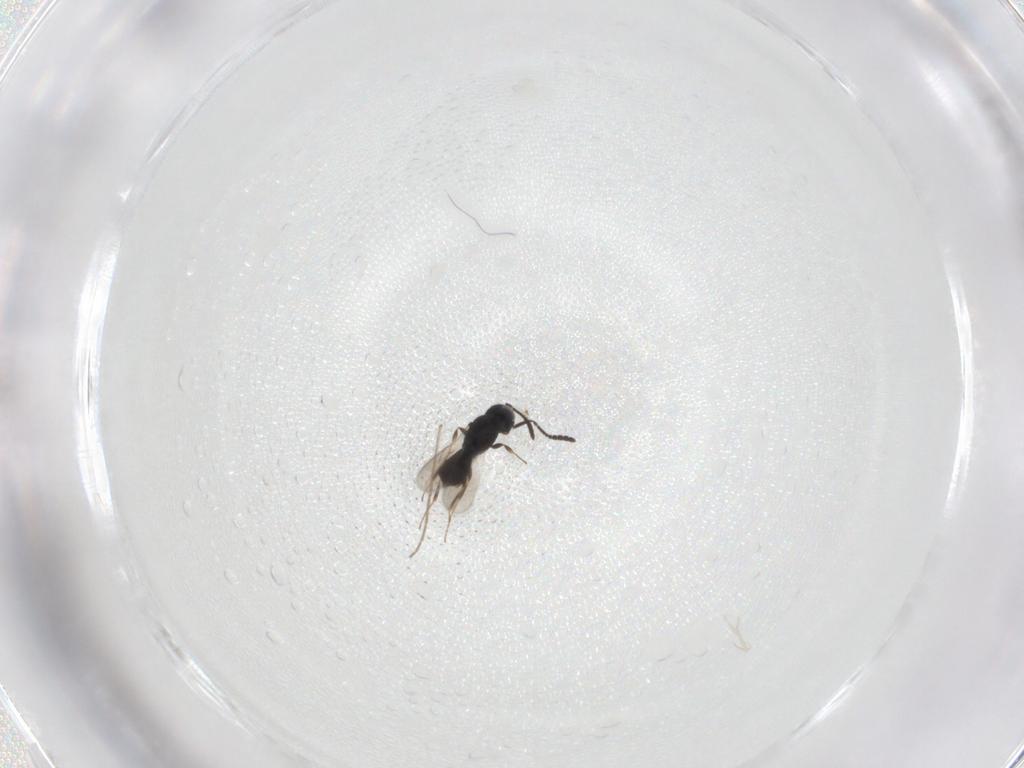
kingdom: Animalia
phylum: Arthropoda
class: Insecta
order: Hymenoptera
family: Scelionidae
